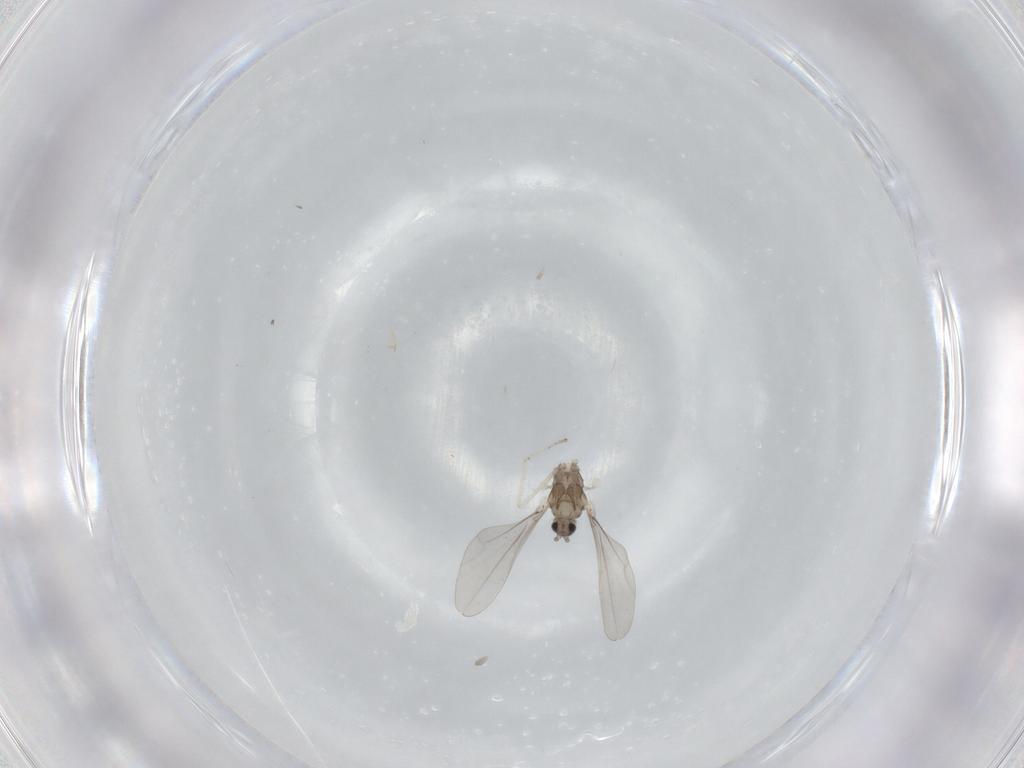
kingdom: Animalia
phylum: Arthropoda
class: Insecta
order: Diptera
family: Cecidomyiidae
